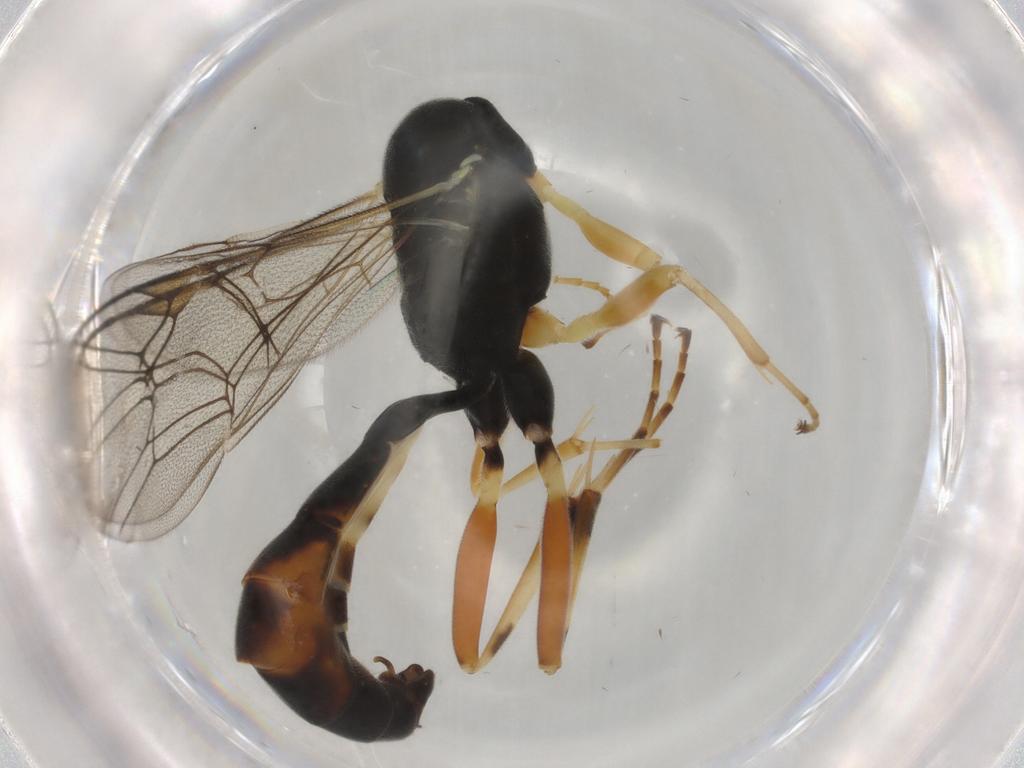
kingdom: Animalia
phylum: Arthropoda
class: Insecta
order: Hymenoptera
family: Ichneumonidae
